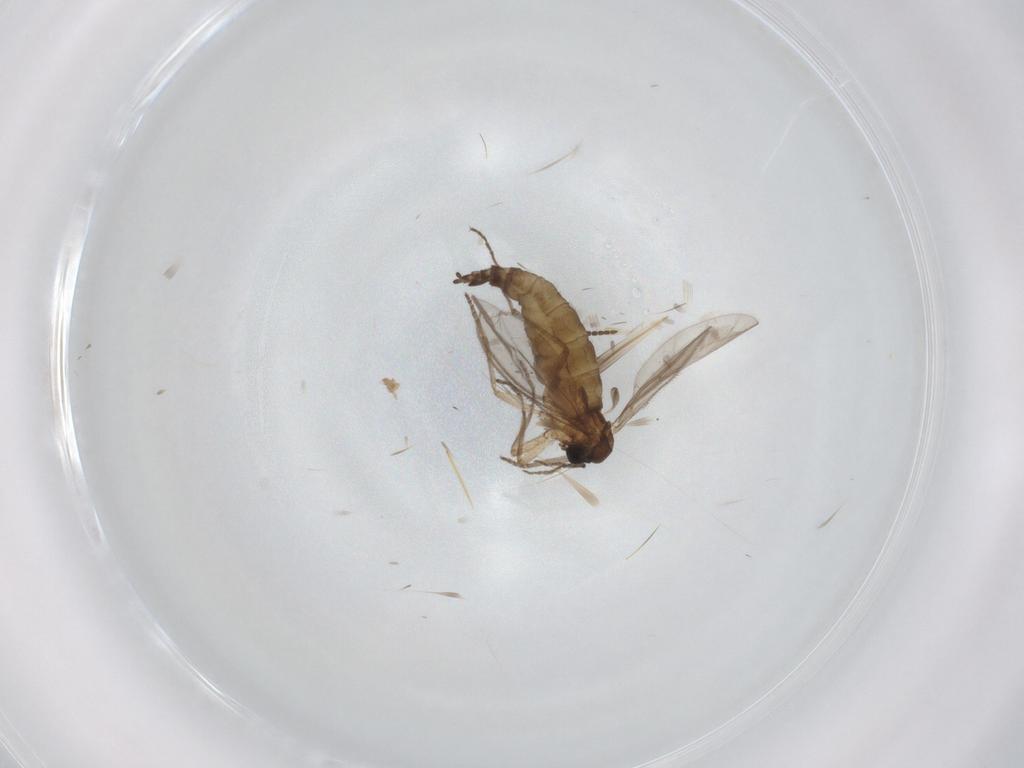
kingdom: Animalia
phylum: Arthropoda
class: Insecta
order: Diptera
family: Sciaridae
